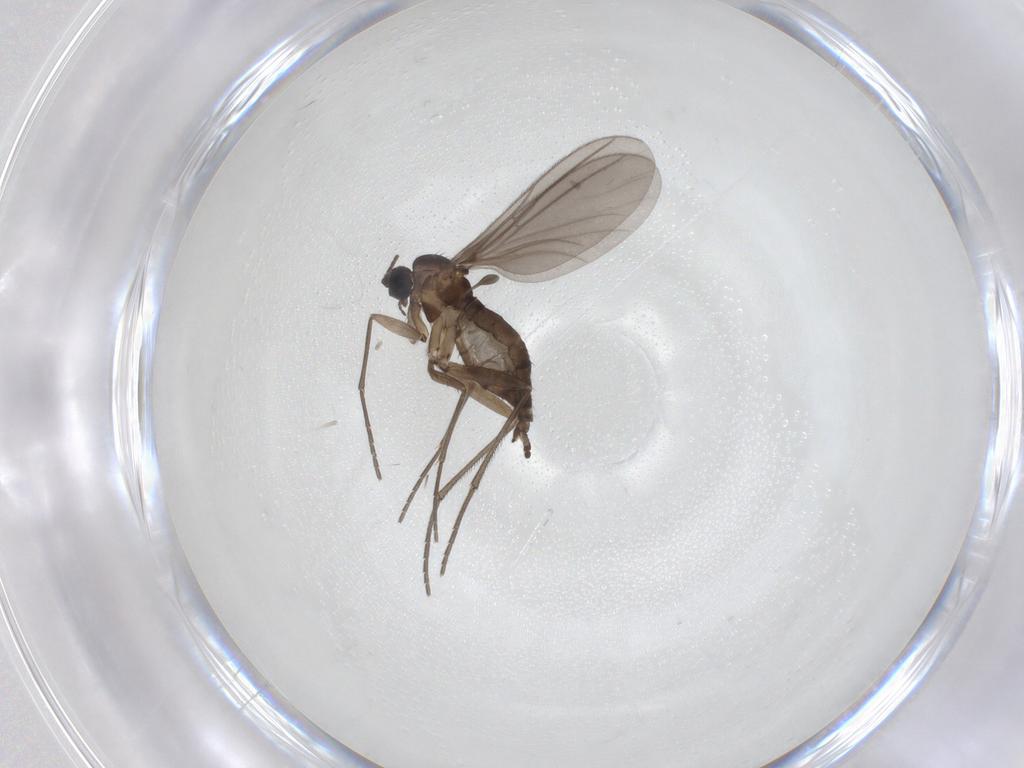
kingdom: Animalia
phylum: Arthropoda
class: Insecta
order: Diptera
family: Sciaridae
